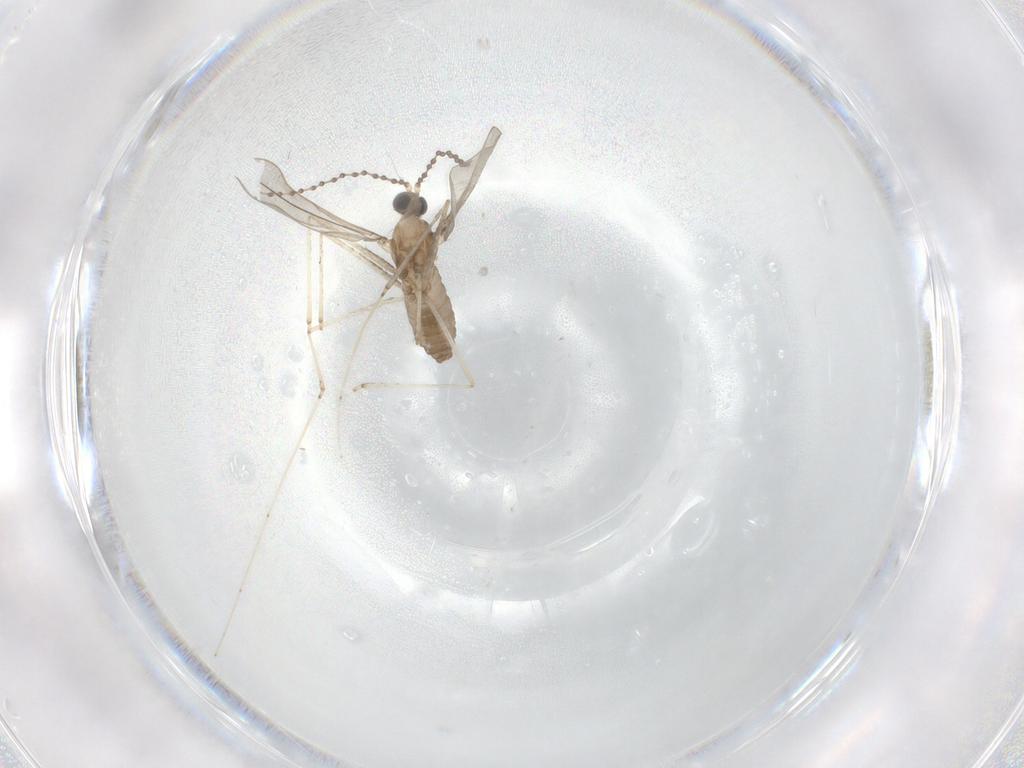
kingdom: Animalia
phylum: Arthropoda
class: Insecta
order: Diptera
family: Cecidomyiidae
